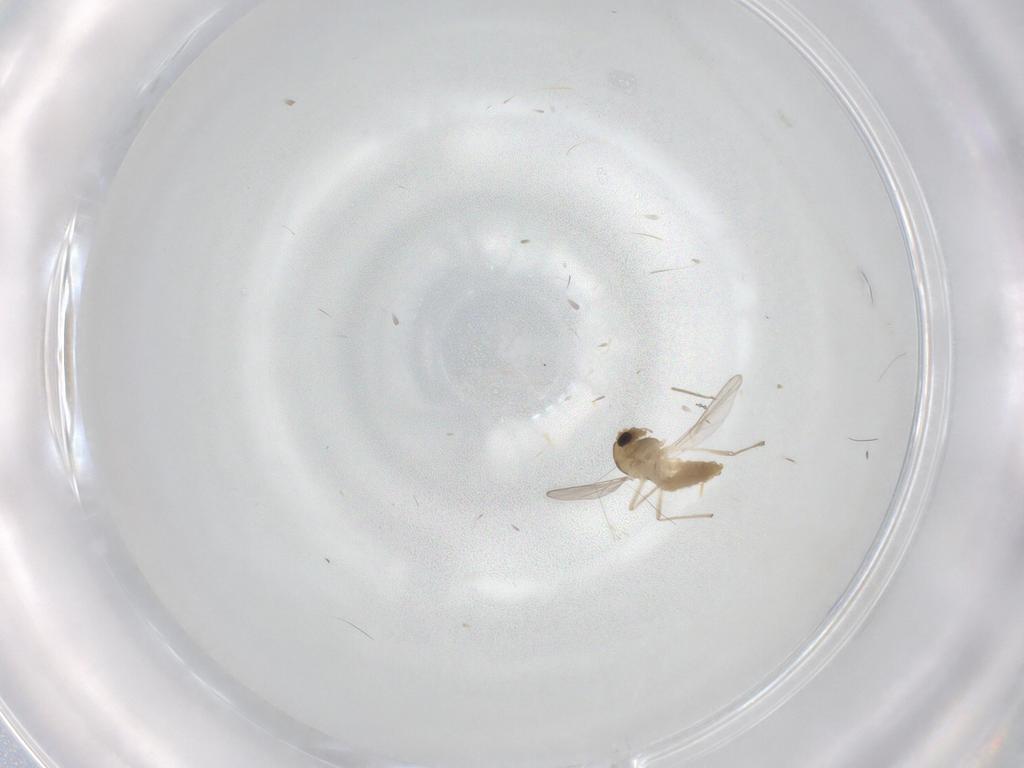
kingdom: Animalia
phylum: Arthropoda
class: Insecta
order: Diptera
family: Chironomidae
